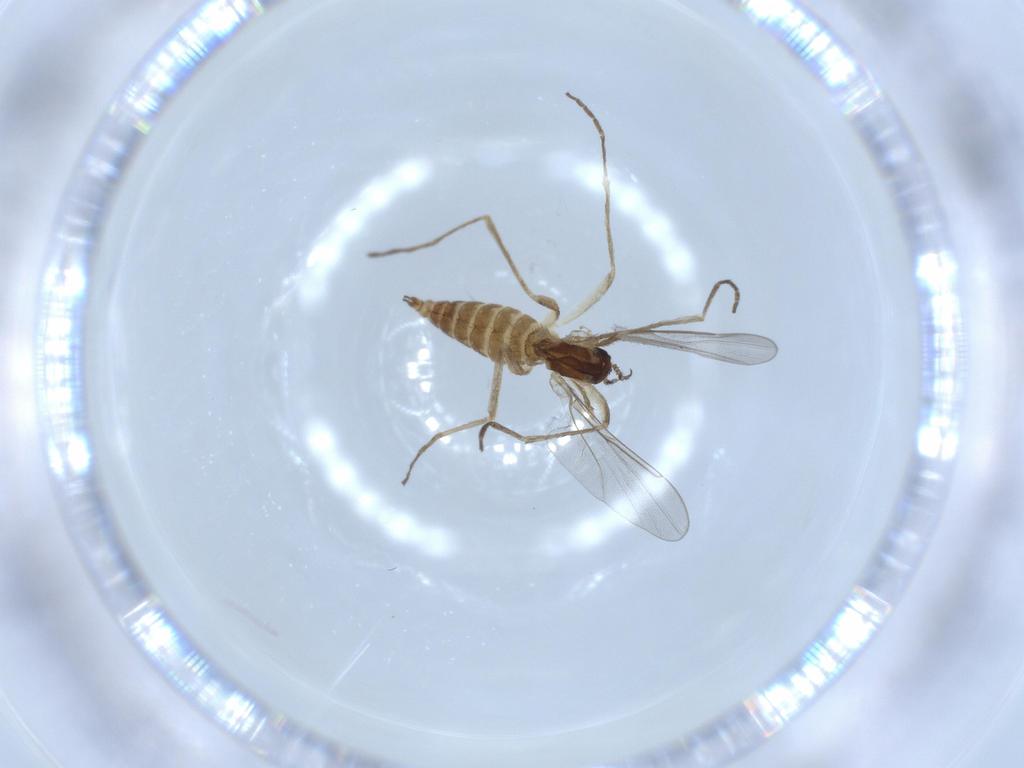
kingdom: Animalia
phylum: Arthropoda
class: Insecta
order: Diptera
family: Cecidomyiidae
